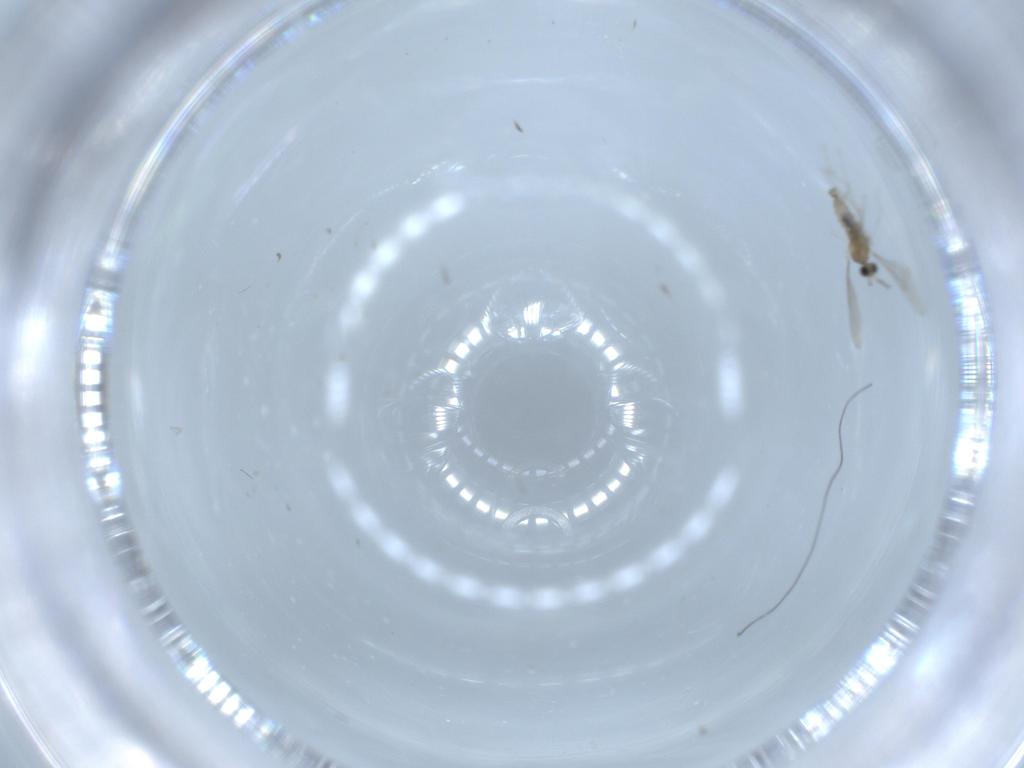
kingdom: Animalia
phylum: Arthropoda
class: Insecta
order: Diptera
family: Cecidomyiidae
